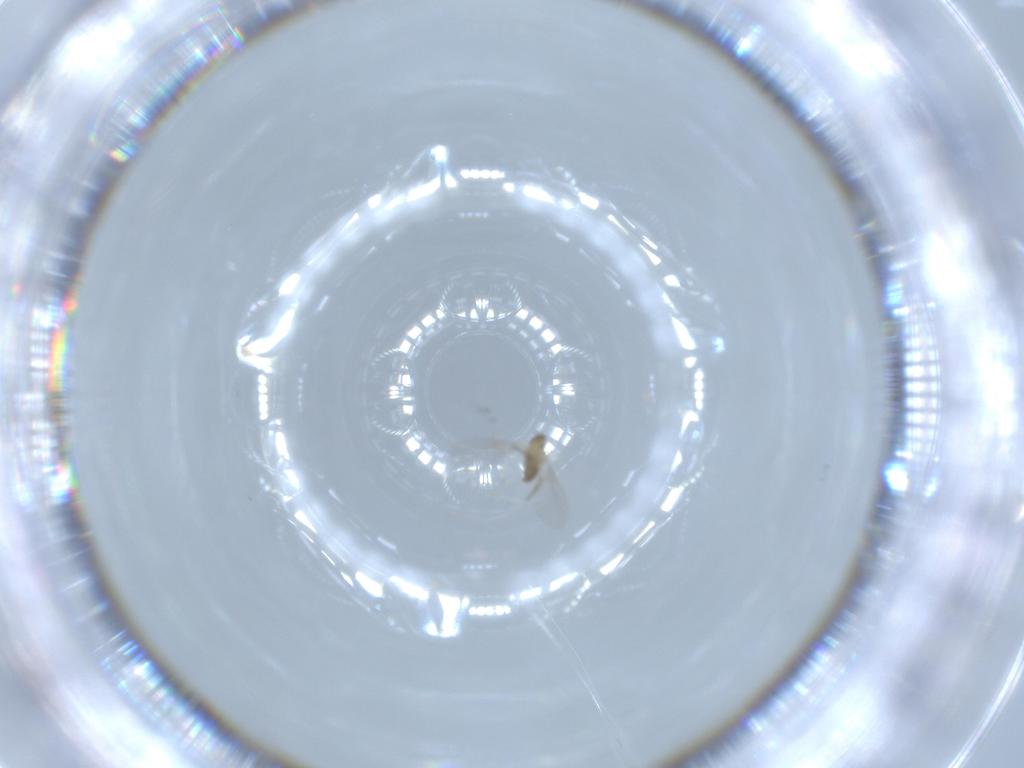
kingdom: Animalia
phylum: Arthropoda
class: Insecta
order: Diptera
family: Cecidomyiidae
